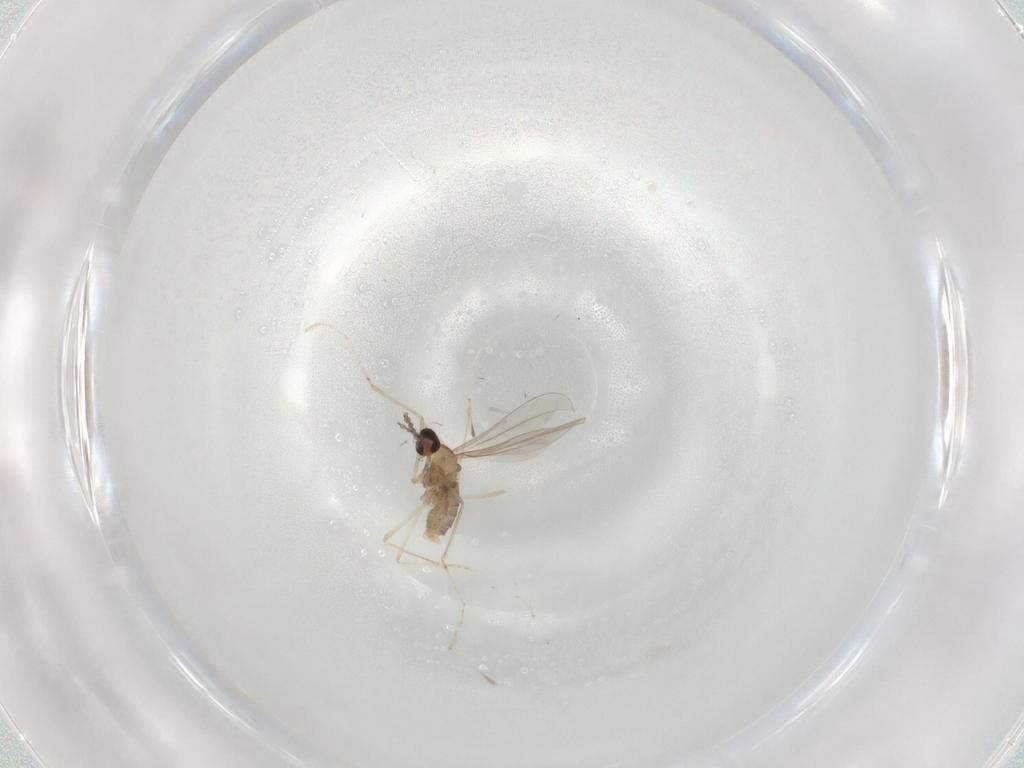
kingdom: Animalia
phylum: Arthropoda
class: Insecta
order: Diptera
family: Cecidomyiidae
